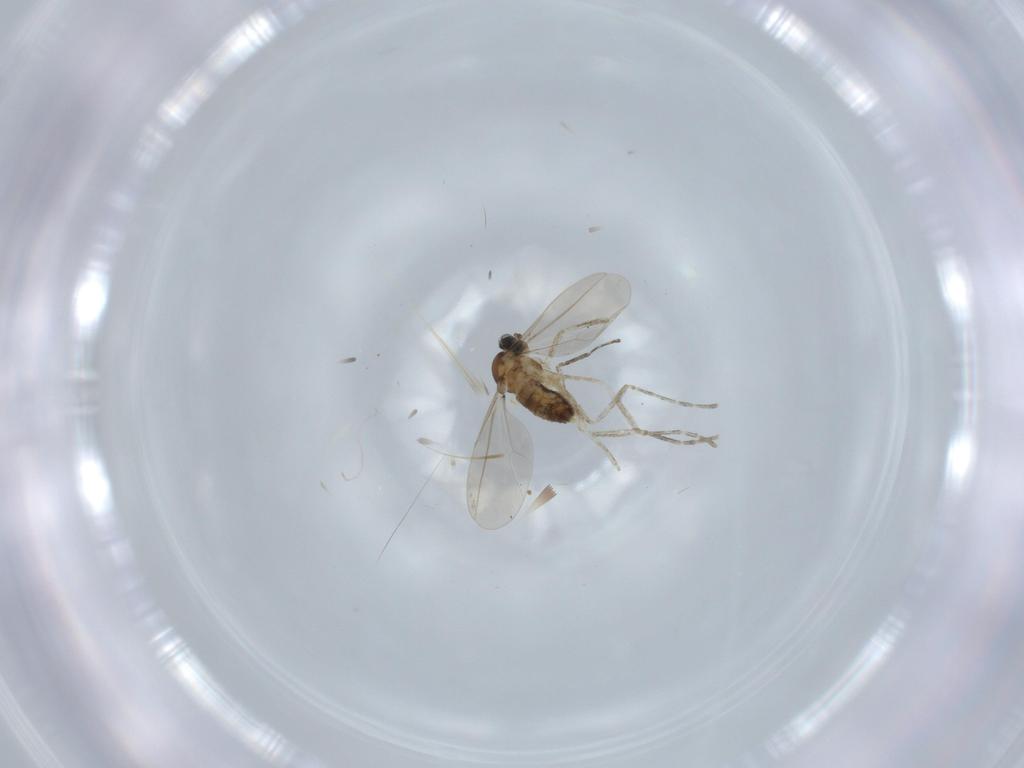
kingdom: Animalia
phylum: Arthropoda
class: Insecta
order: Diptera
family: Cecidomyiidae
